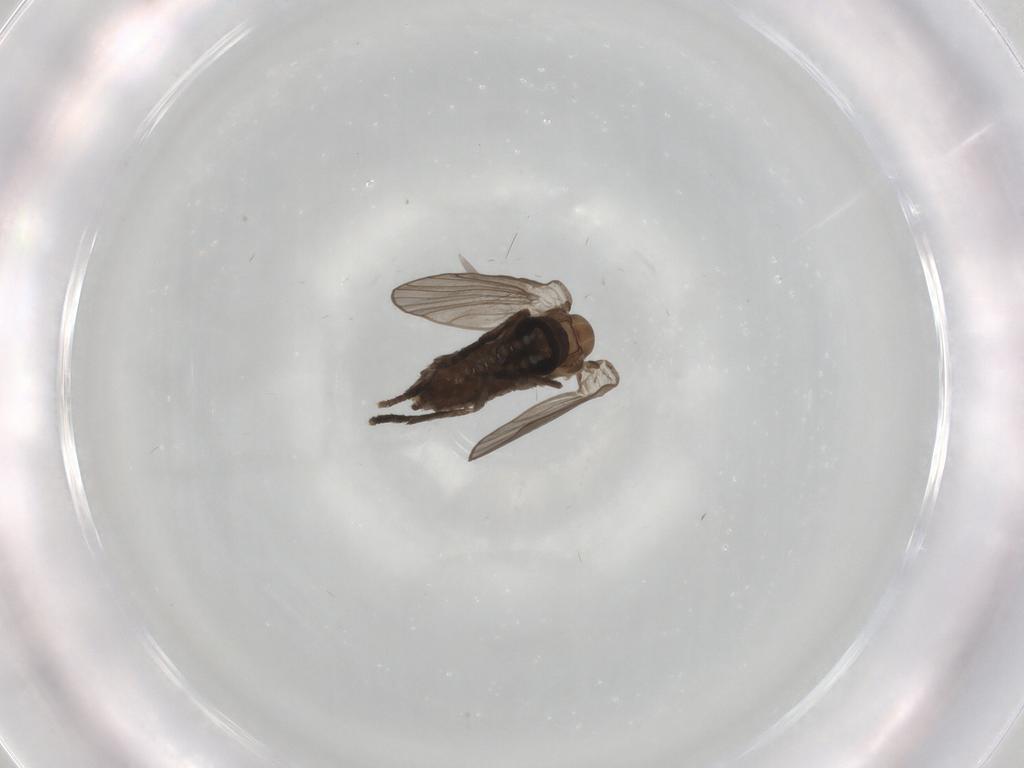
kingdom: Animalia
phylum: Arthropoda
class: Insecta
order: Diptera
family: Psychodidae
